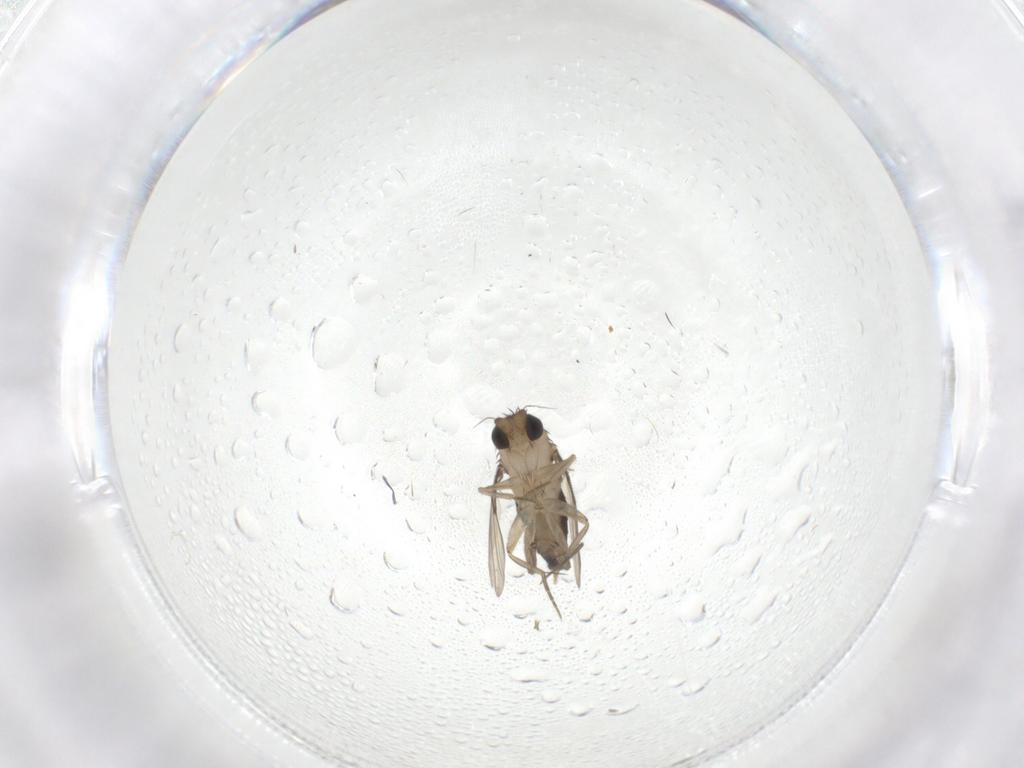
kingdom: Animalia
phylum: Arthropoda
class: Insecta
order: Diptera
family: Phoridae
